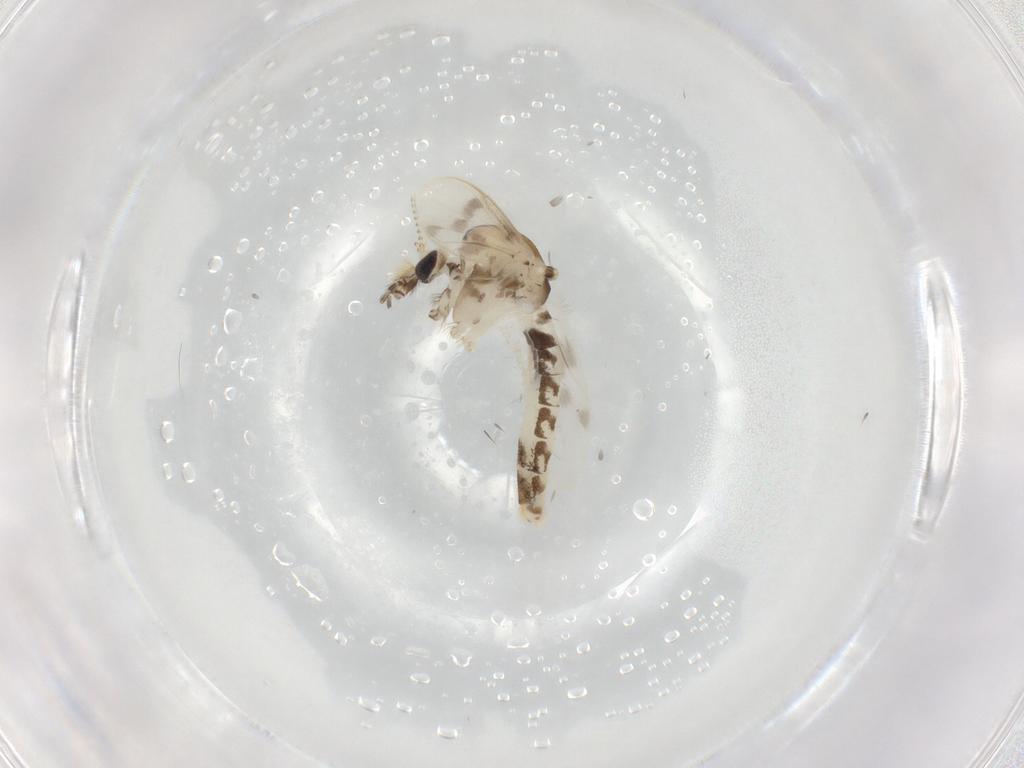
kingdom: Animalia
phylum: Arthropoda
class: Insecta
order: Diptera
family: Corethrellidae
